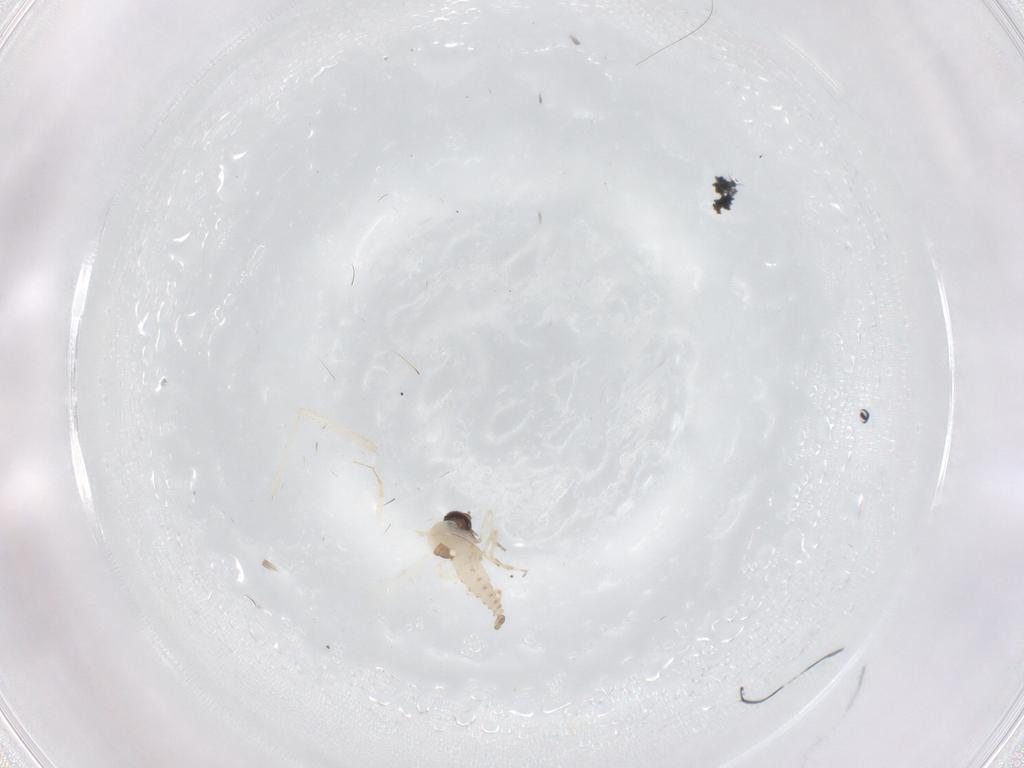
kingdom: Animalia
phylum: Arthropoda
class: Insecta
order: Diptera
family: Chironomidae
